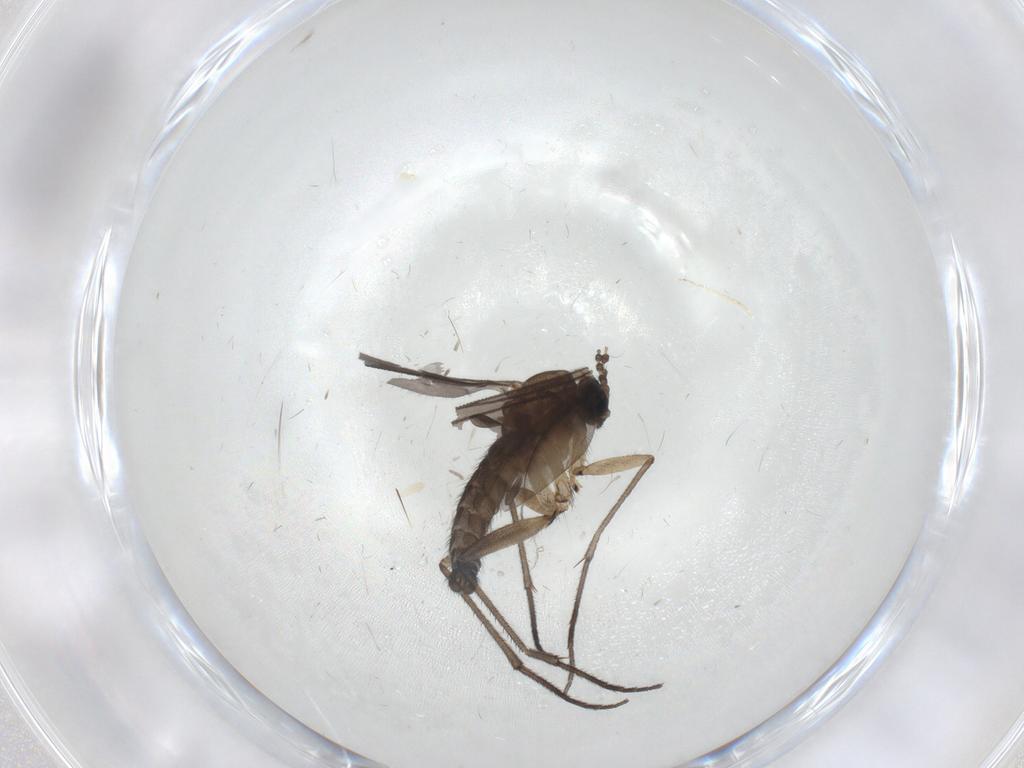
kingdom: Animalia
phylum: Arthropoda
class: Insecta
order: Diptera
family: Sciaridae
